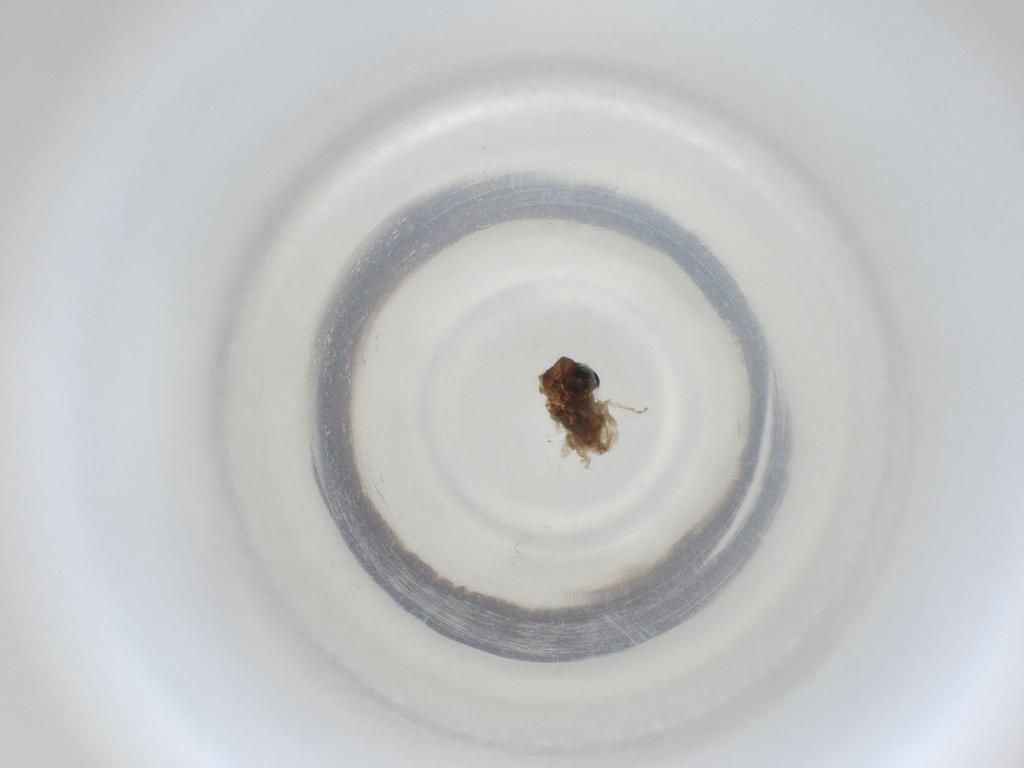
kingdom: Animalia
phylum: Arthropoda
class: Insecta
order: Diptera
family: Cecidomyiidae
